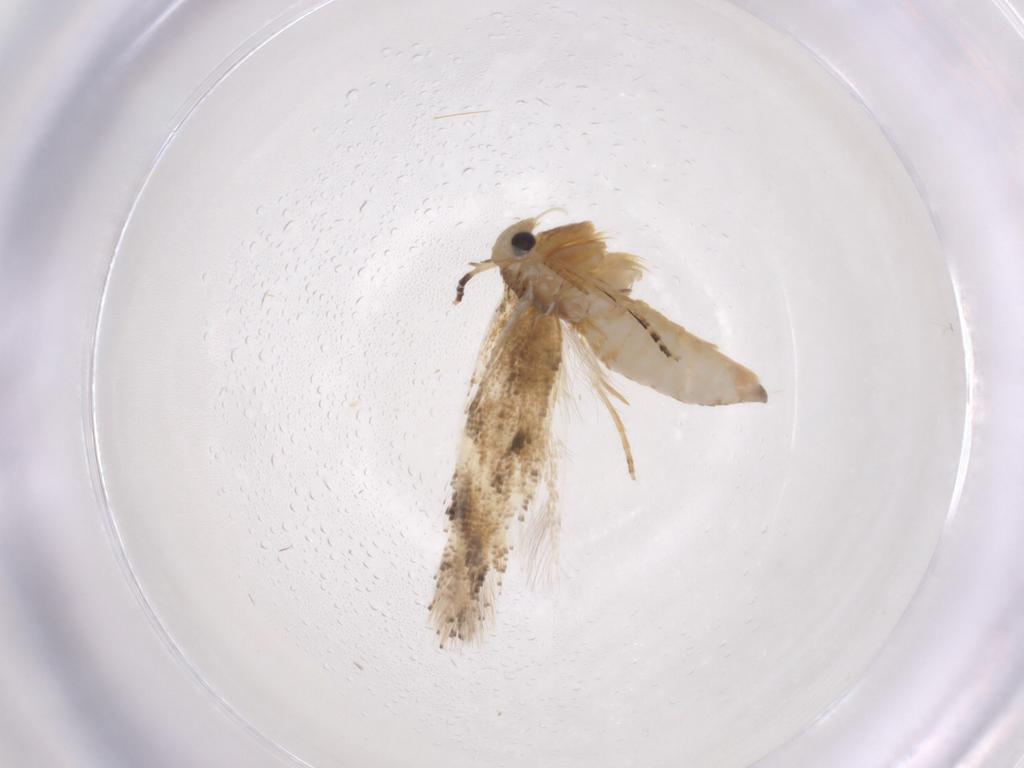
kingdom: Animalia
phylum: Arthropoda
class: Insecta
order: Lepidoptera
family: Bucculatricidae
